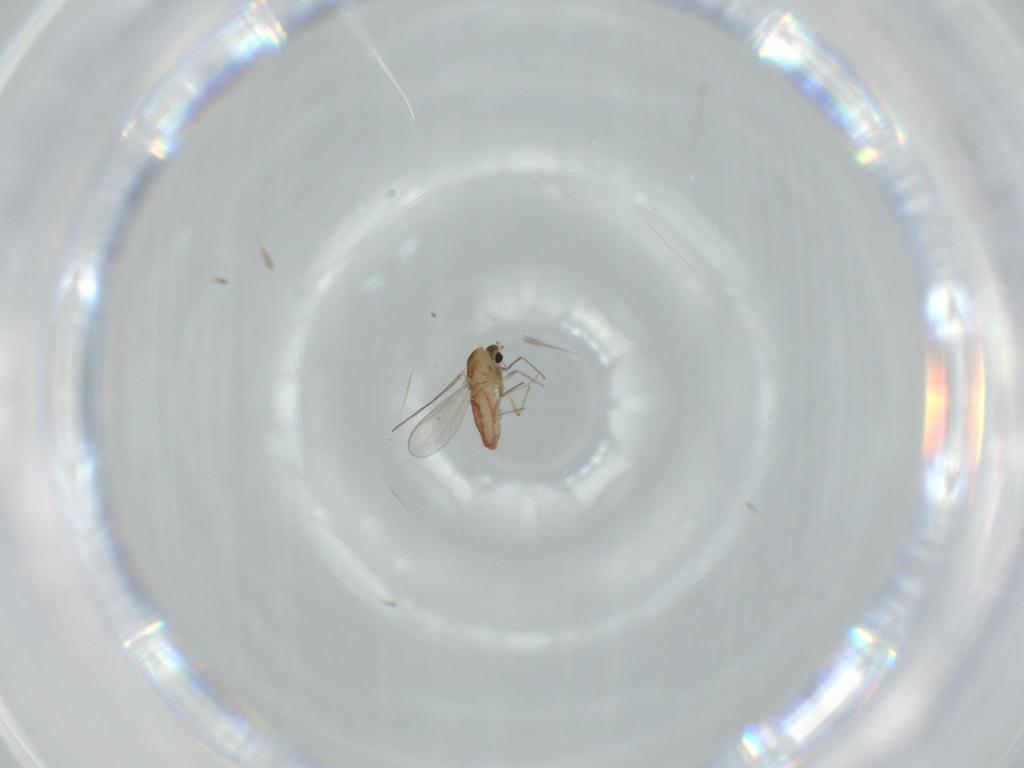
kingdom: Animalia
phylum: Arthropoda
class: Insecta
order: Diptera
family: Chironomidae
